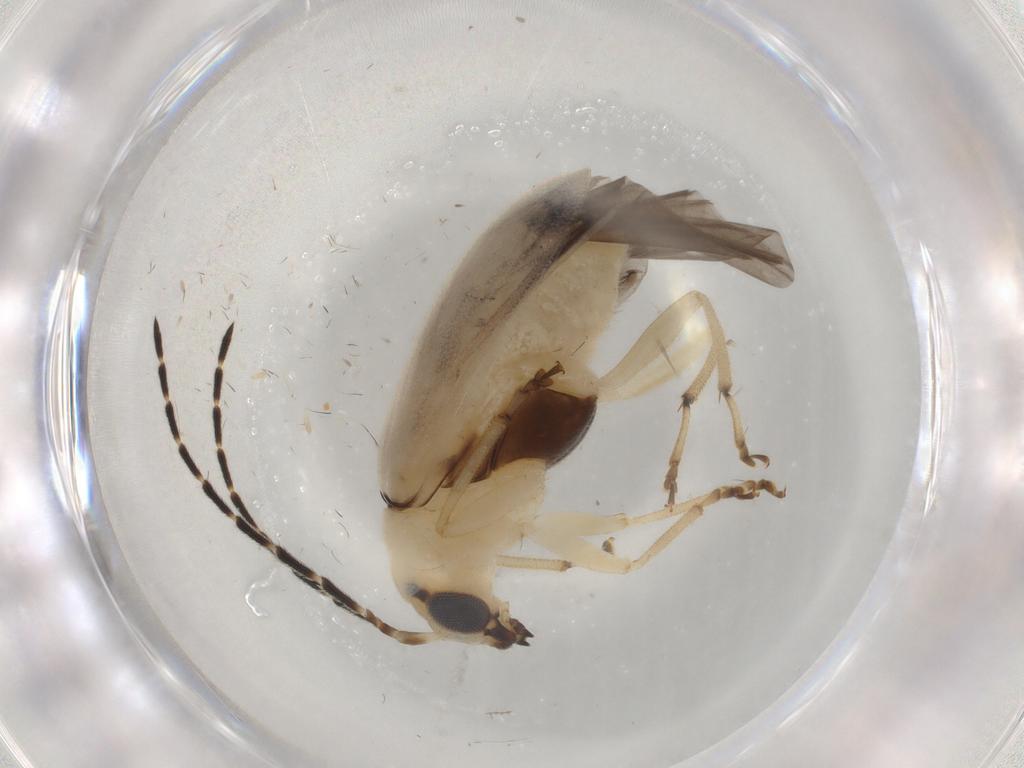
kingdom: Animalia
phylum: Arthropoda
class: Insecta
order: Coleoptera
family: Chrysomelidae
